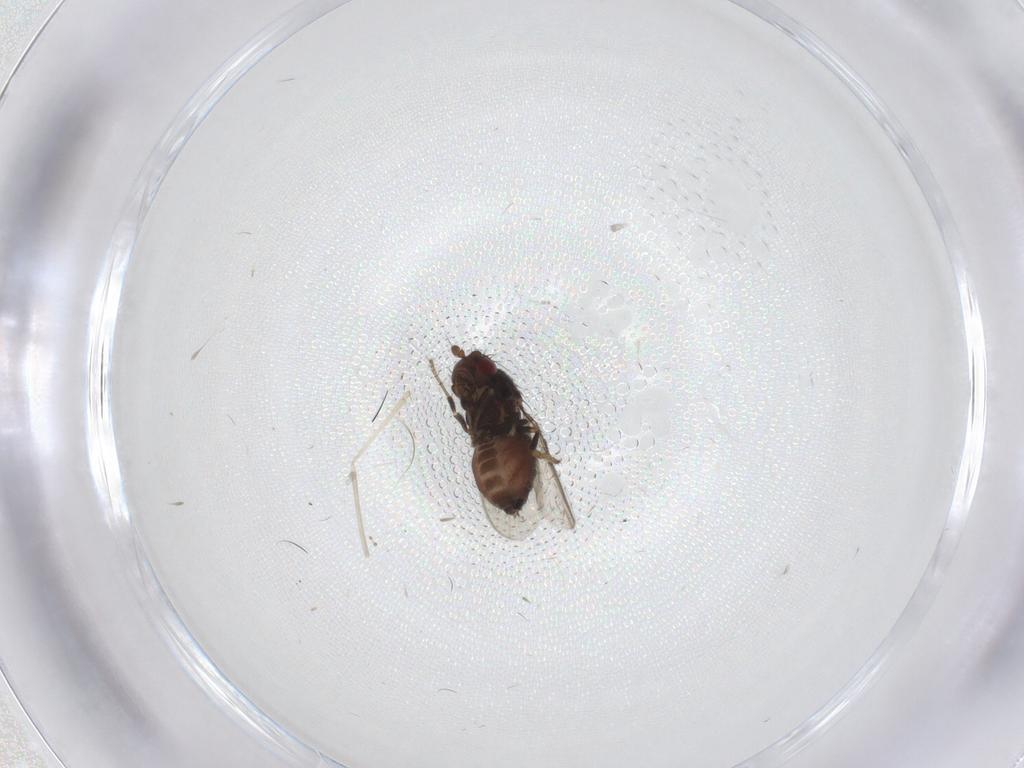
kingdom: Animalia
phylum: Arthropoda
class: Insecta
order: Diptera
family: Sphaeroceridae
